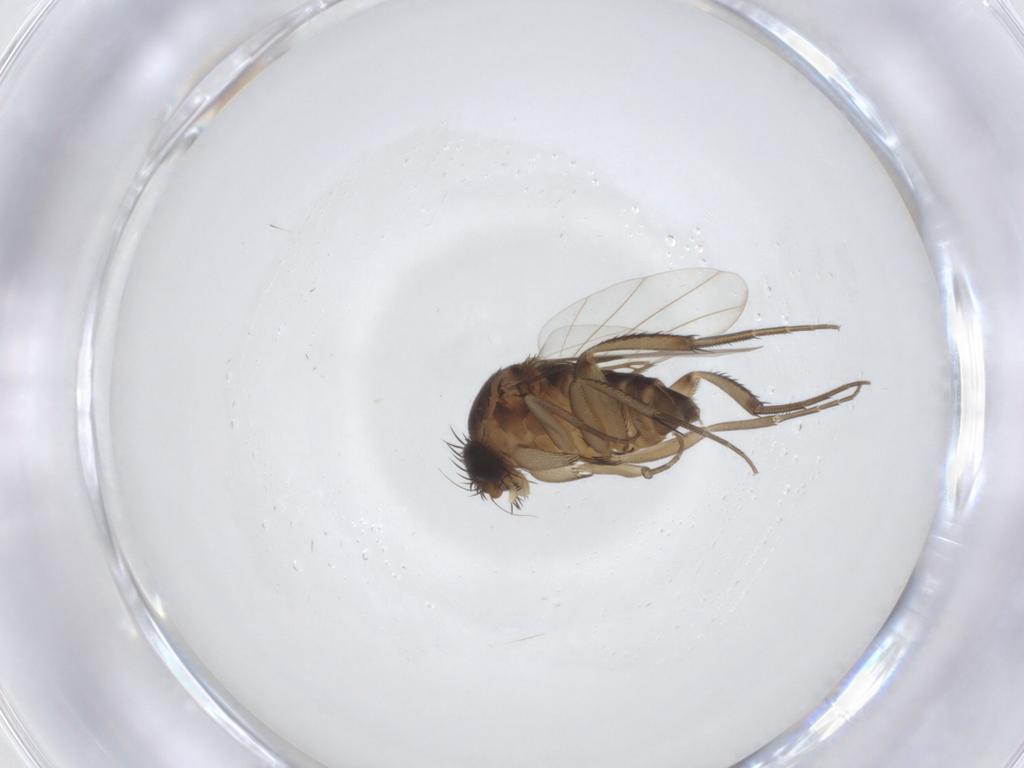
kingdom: Animalia
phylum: Arthropoda
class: Insecta
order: Diptera
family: Phoridae
